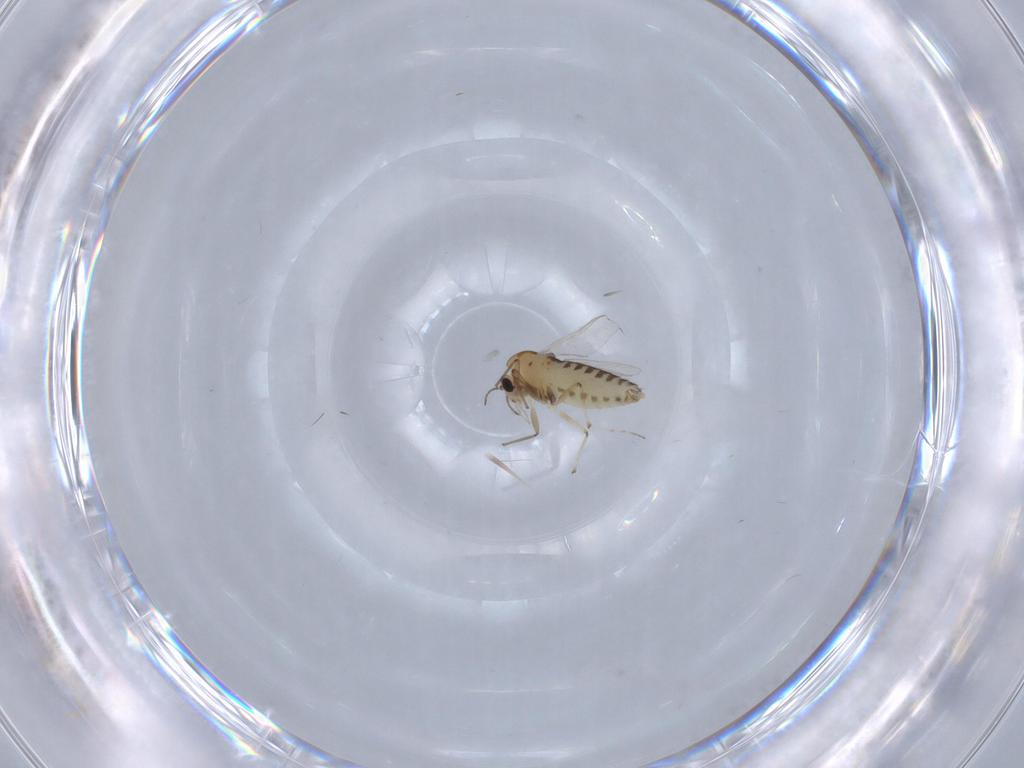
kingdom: Animalia
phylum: Arthropoda
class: Insecta
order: Diptera
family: Chironomidae
